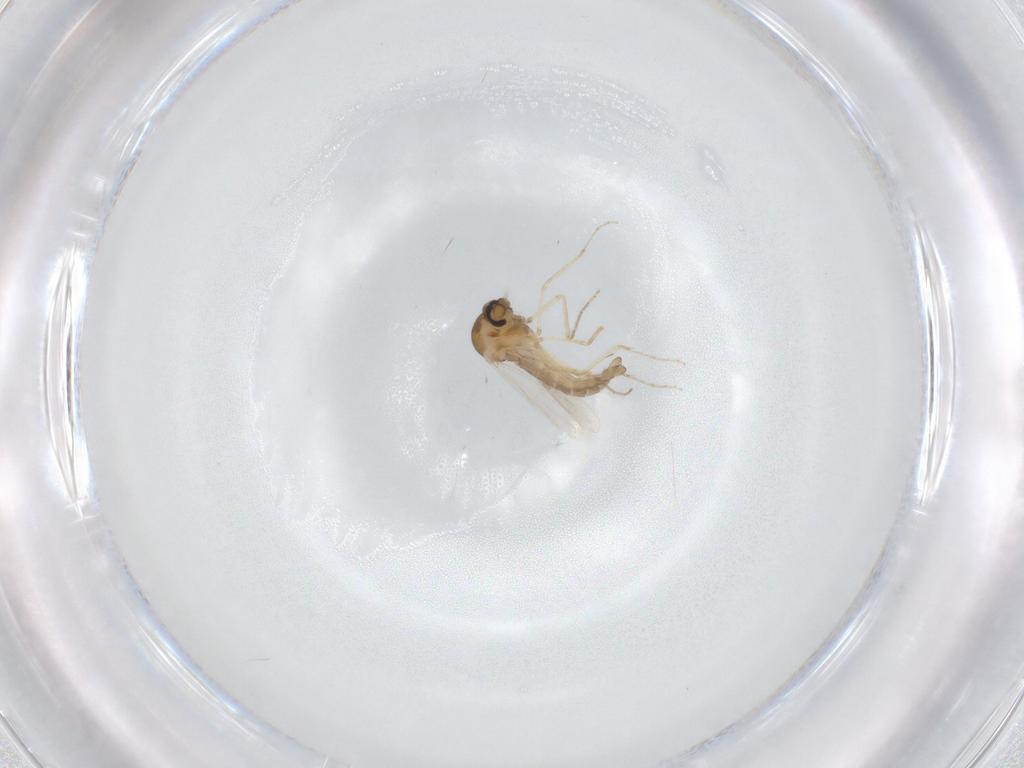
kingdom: Animalia
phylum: Arthropoda
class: Insecta
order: Diptera
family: Ceratopogonidae
